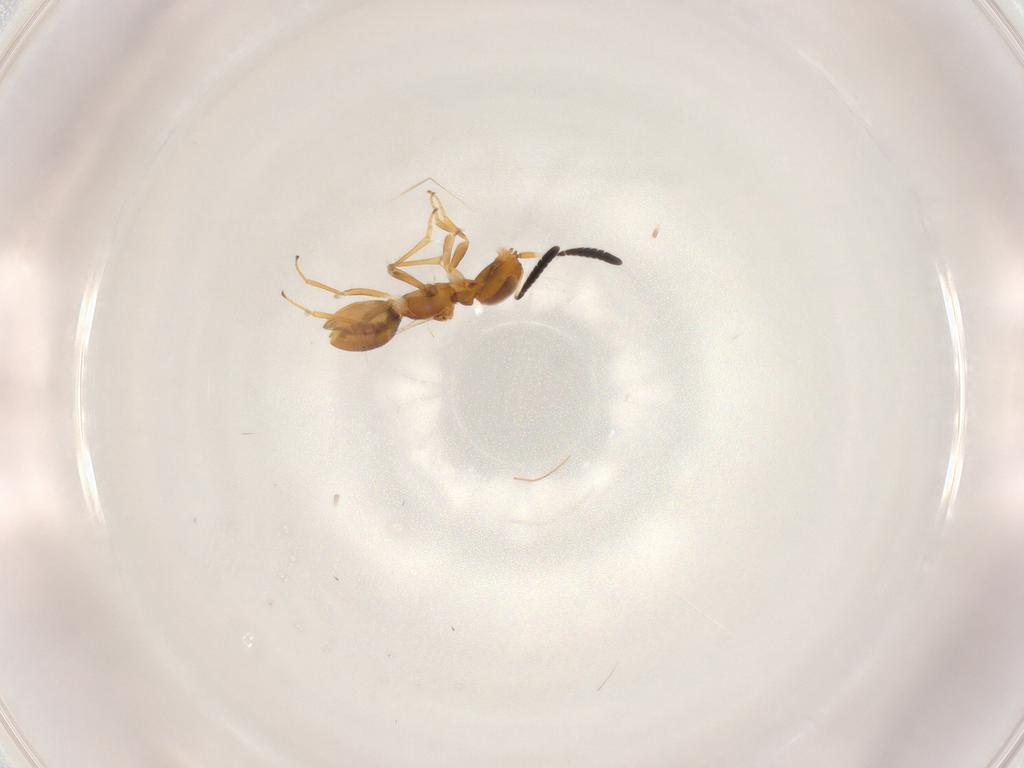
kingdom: Animalia
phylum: Arthropoda
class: Insecta
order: Hymenoptera
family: Encyrtidae
